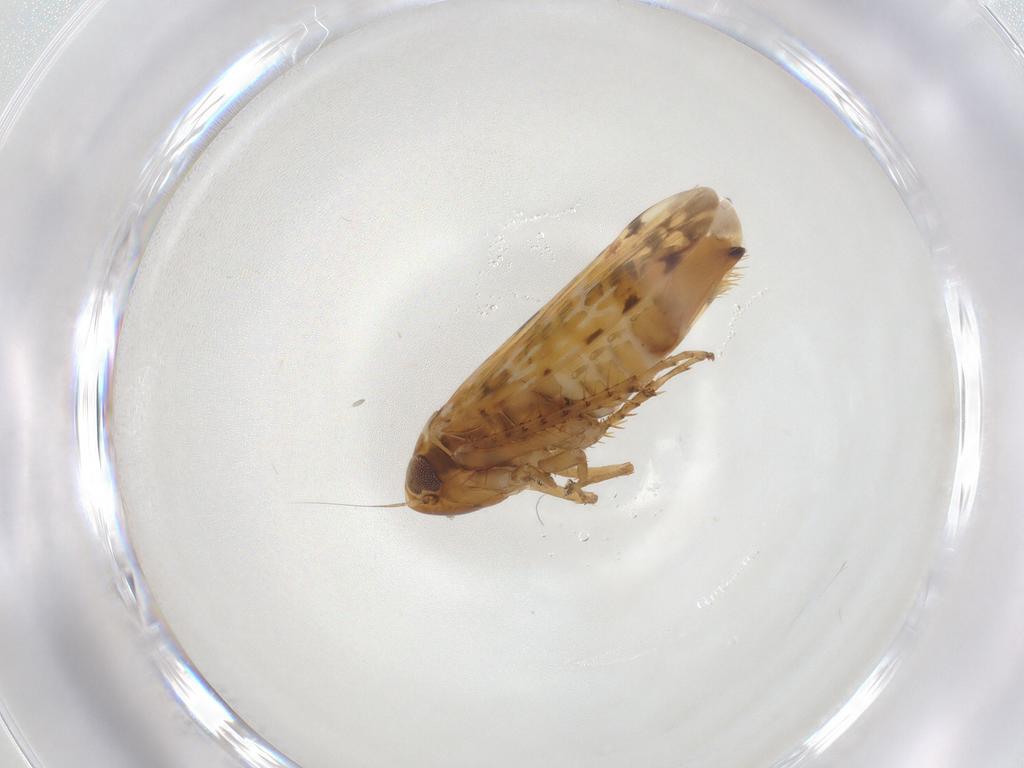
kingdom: Animalia
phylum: Arthropoda
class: Insecta
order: Hemiptera
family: Cicadellidae
